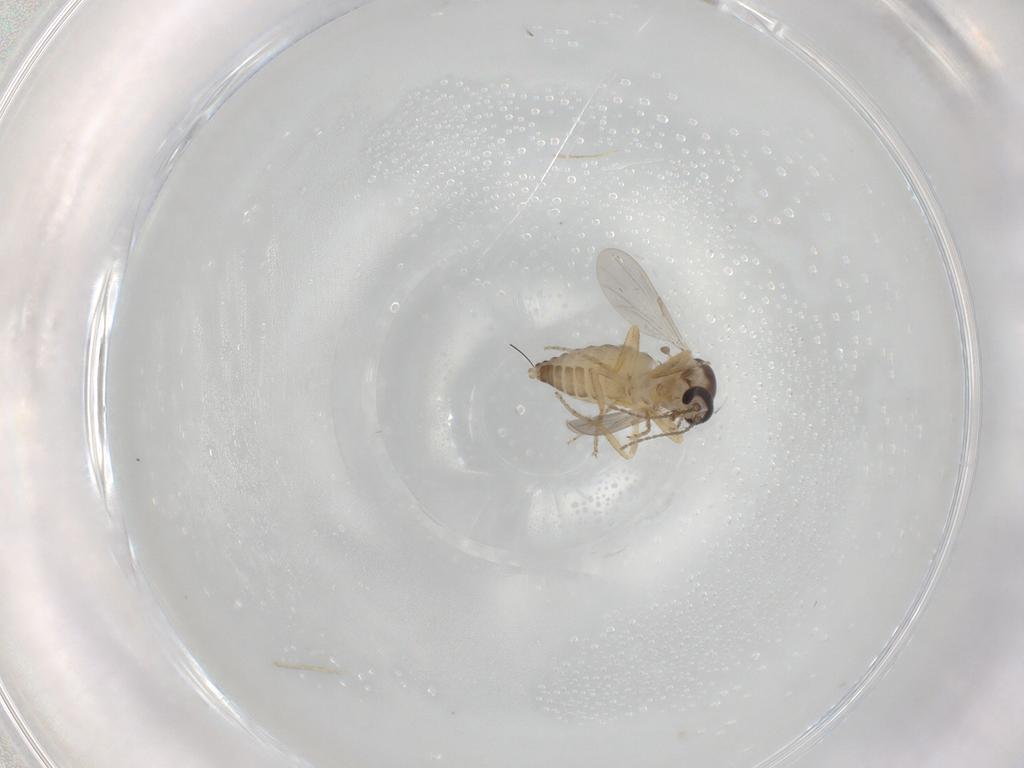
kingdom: Animalia
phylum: Arthropoda
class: Insecta
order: Diptera
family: Ceratopogonidae
